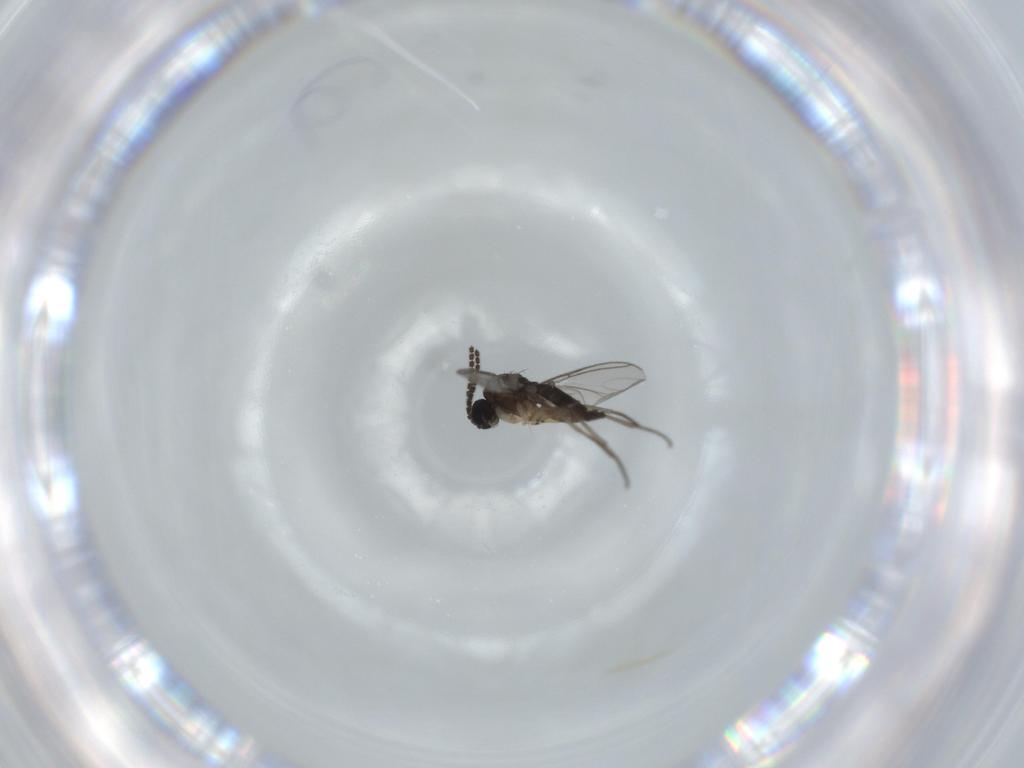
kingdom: Animalia
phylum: Arthropoda
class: Insecta
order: Diptera
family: Sciaridae
